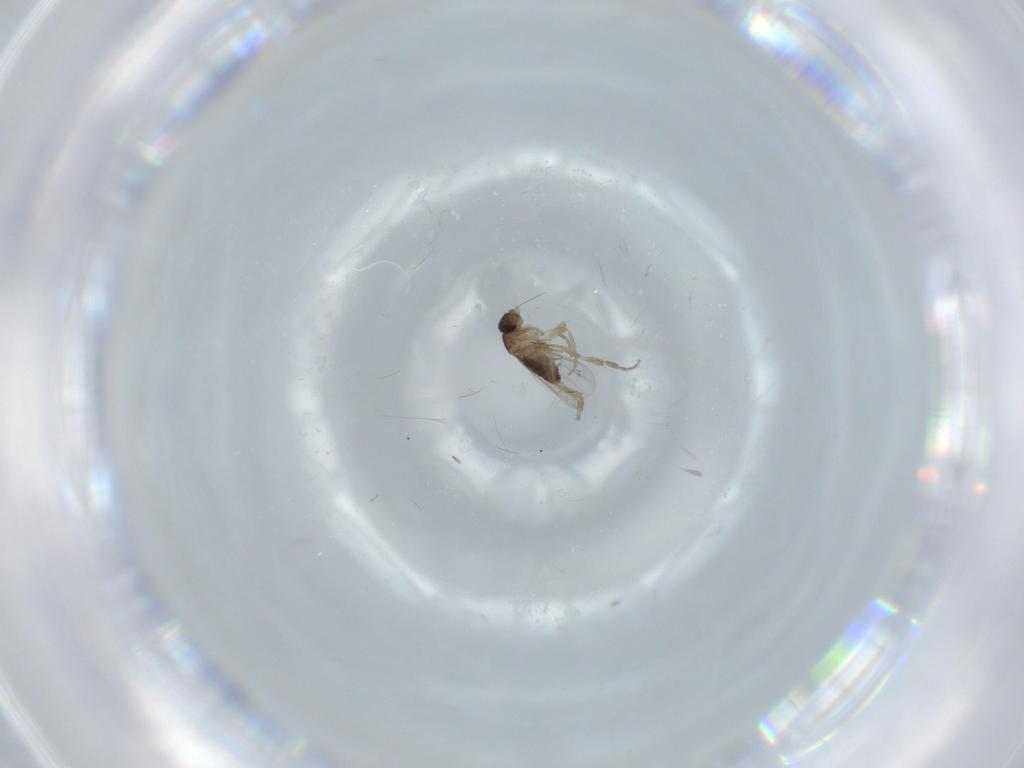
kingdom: Animalia
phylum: Arthropoda
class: Insecta
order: Diptera
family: Phoridae
